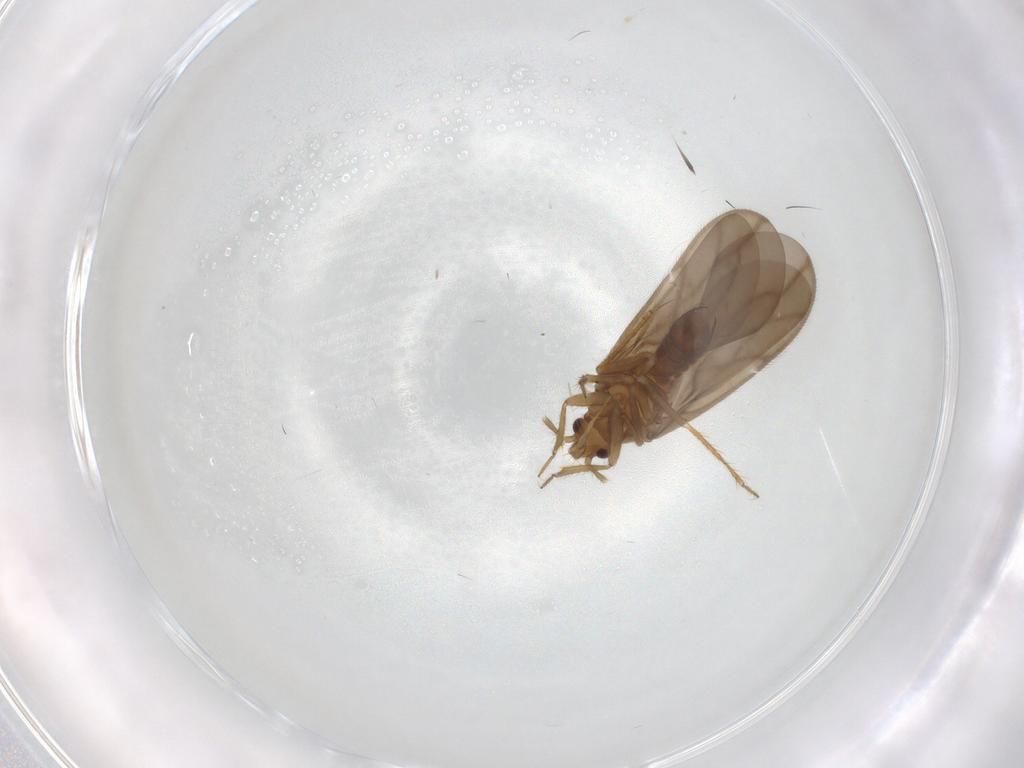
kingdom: Animalia
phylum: Arthropoda
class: Insecta
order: Hemiptera
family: Ceratocombidae
